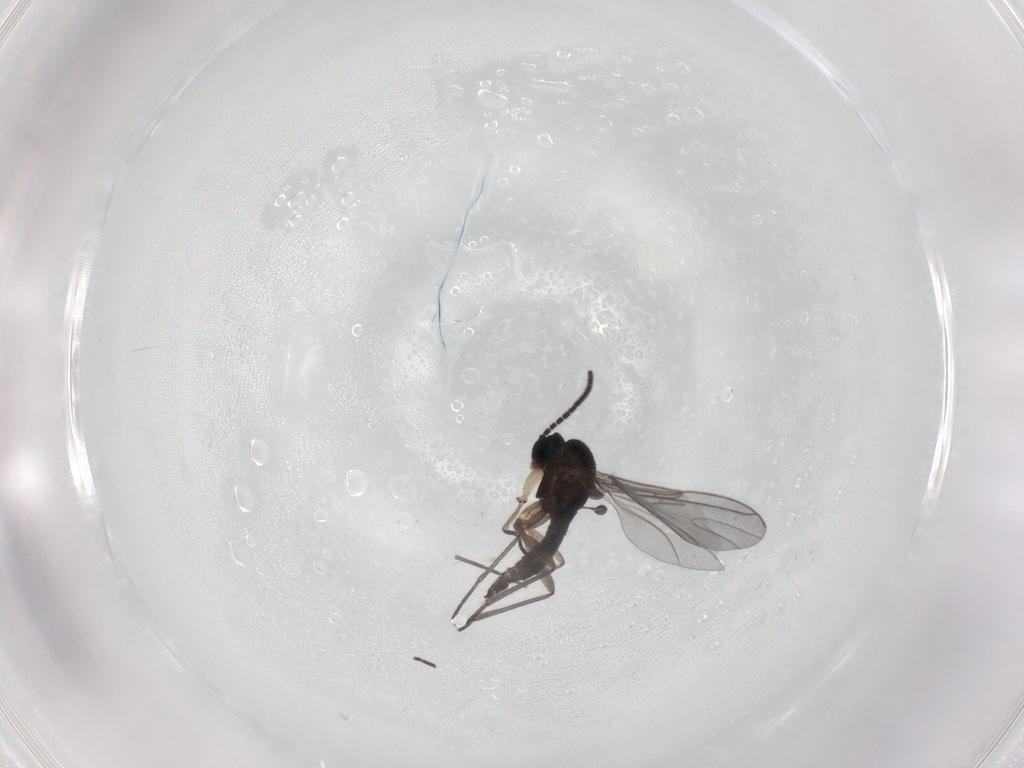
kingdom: Animalia
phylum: Arthropoda
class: Insecta
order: Diptera
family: Sciaridae
